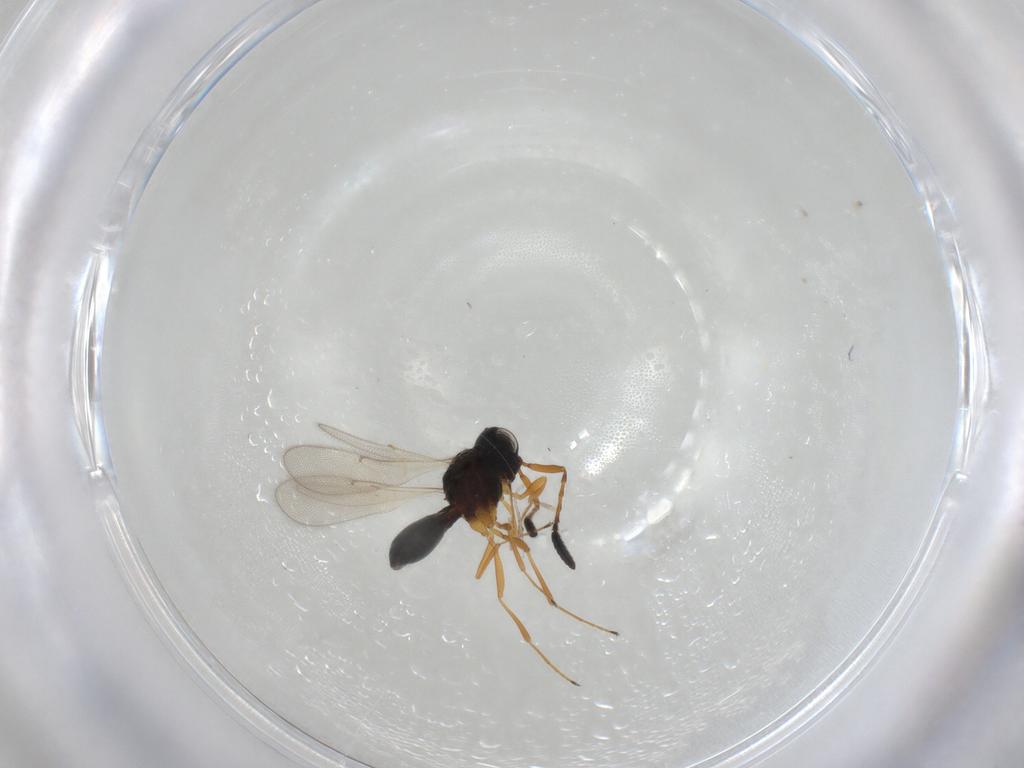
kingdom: Animalia
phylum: Arthropoda
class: Insecta
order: Hymenoptera
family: Scelionidae
